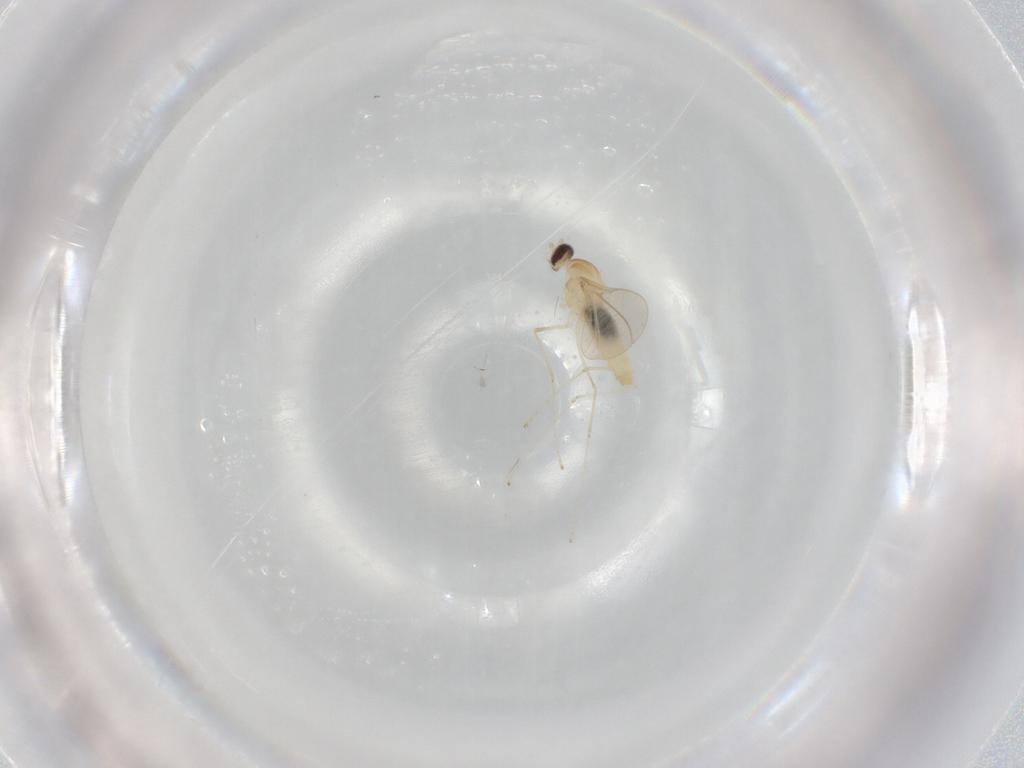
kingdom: Animalia
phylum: Arthropoda
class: Insecta
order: Diptera
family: Cecidomyiidae
